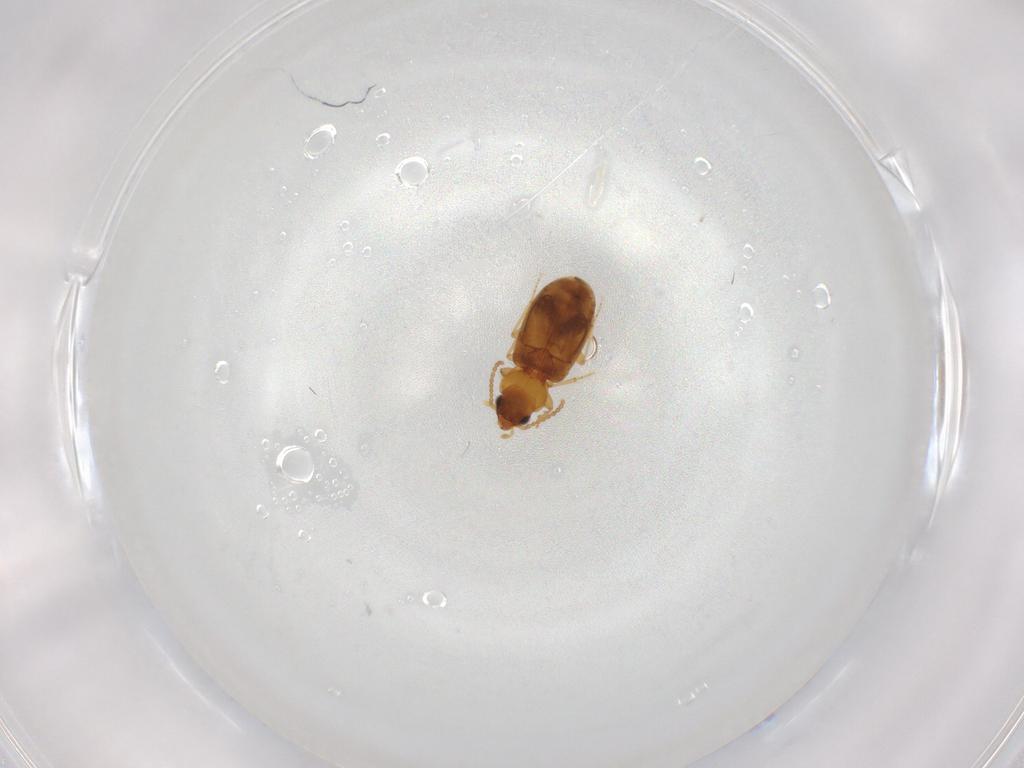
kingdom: Animalia
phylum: Arthropoda
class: Insecta
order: Coleoptera
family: Carabidae
